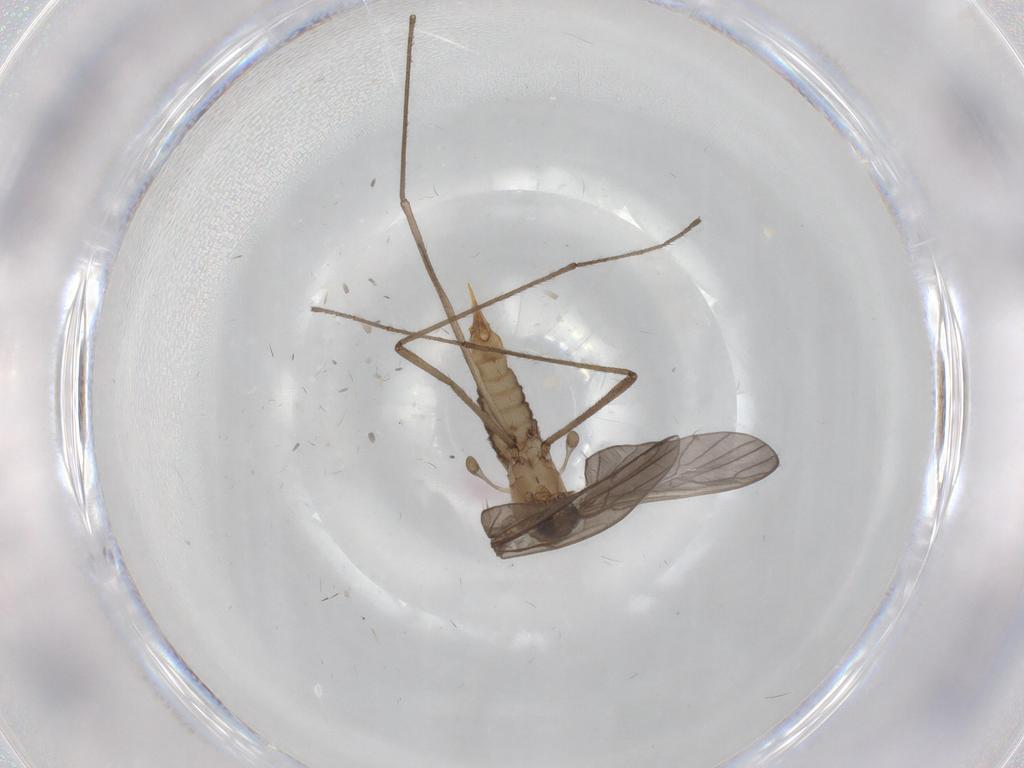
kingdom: Animalia
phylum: Arthropoda
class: Insecta
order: Diptera
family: Limoniidae
